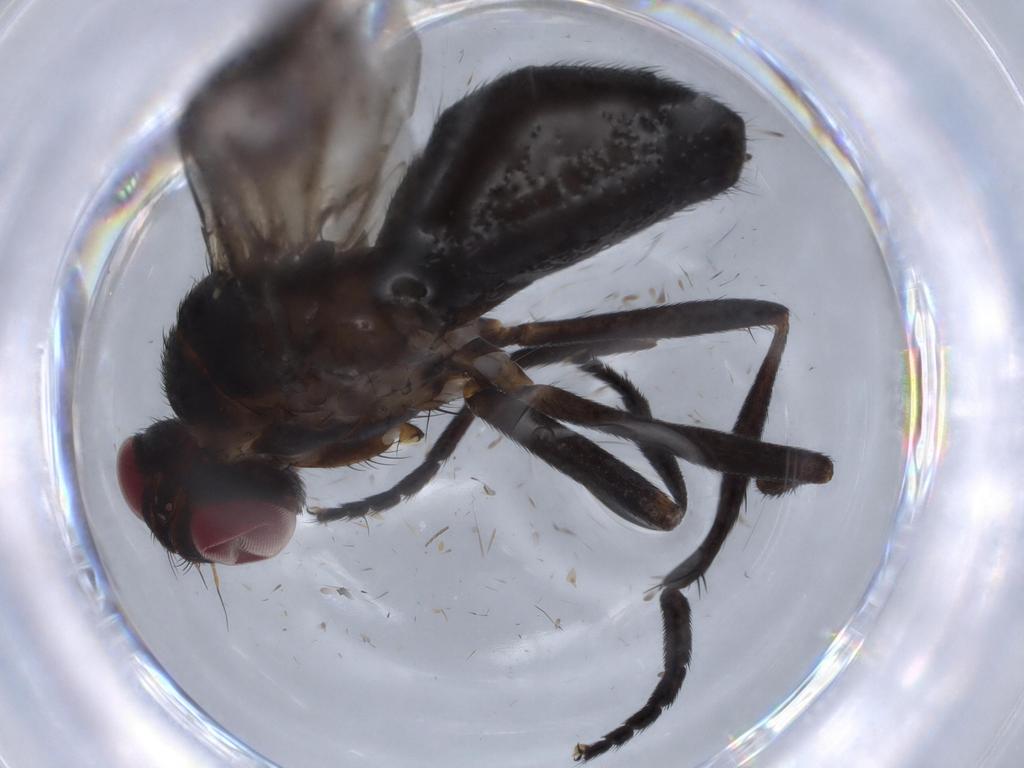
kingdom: Animalia
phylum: Arthropoda
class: Insecta
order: Diptera
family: Calliphoridae
